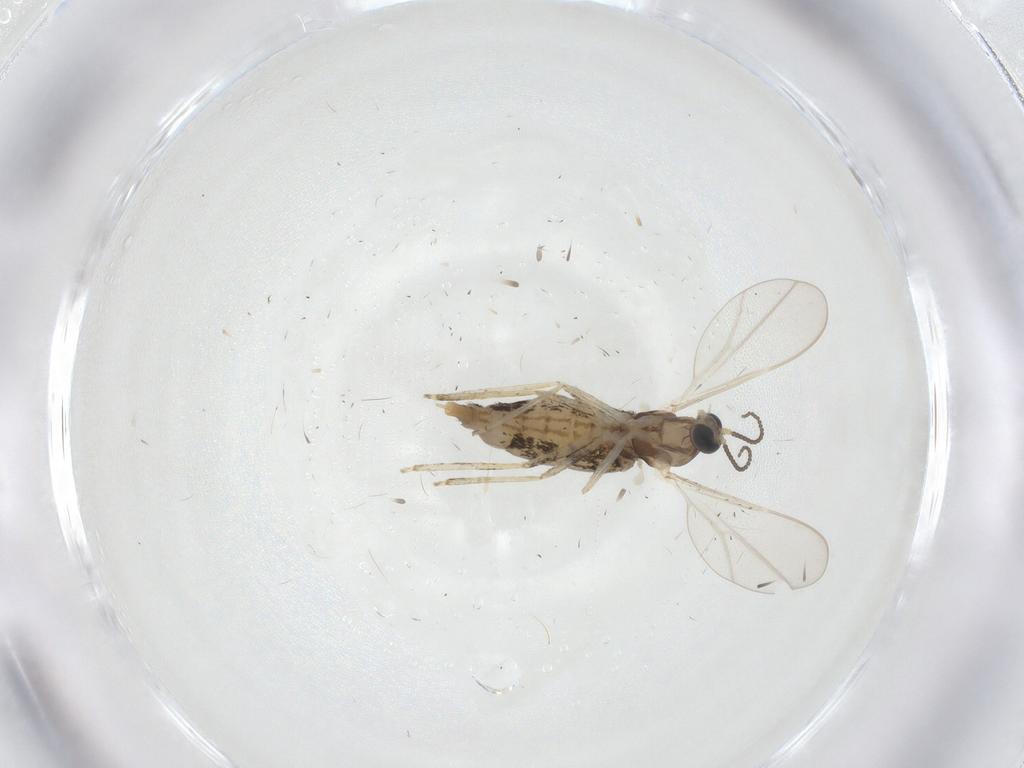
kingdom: Animalia
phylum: Arthropoda
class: Insecta
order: Diptera
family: Cecidomyiidae
